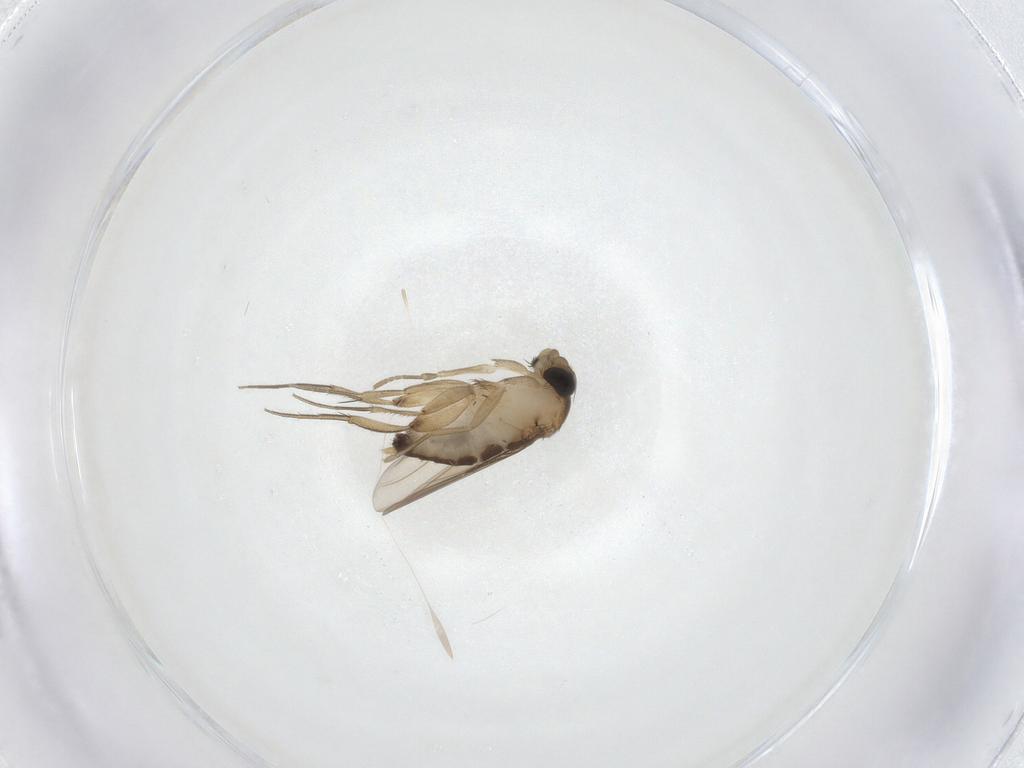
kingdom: Animalia
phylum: Arthropoda
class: Insecta
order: Diptera
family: Phoridae
